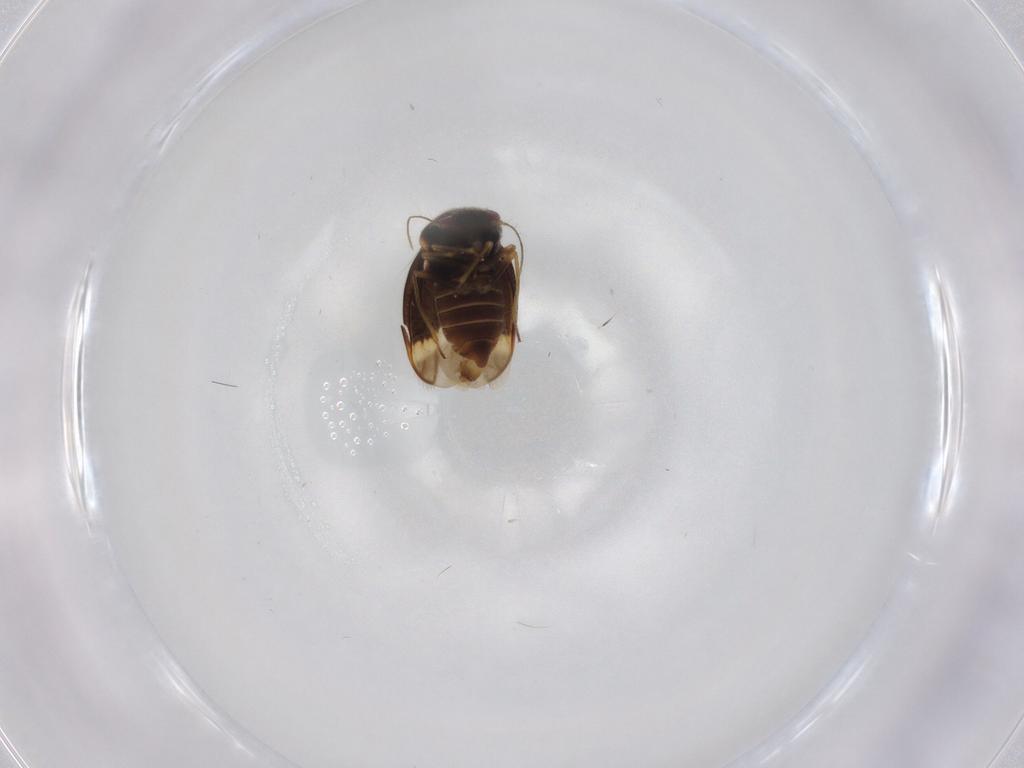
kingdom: Animalia
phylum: Arthropoda
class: Insecta
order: Hemiptera
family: Schizopteridae
